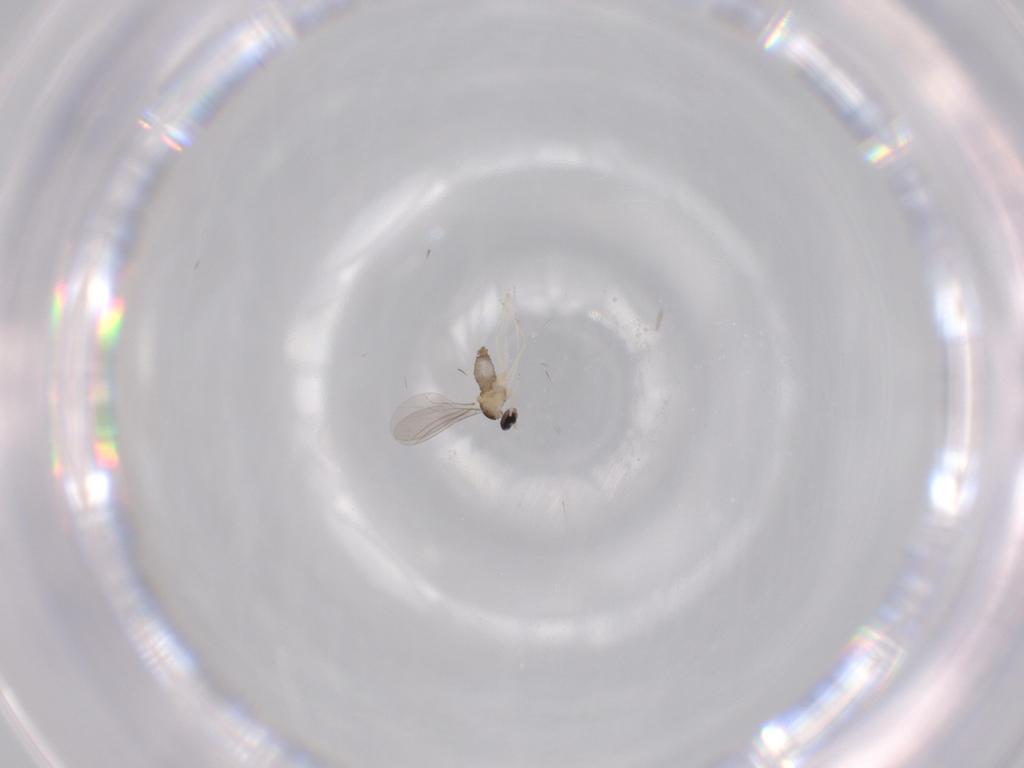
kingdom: Animalia
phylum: Arthropoda
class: Insecta
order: Diptera
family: Cecidomyiidae
